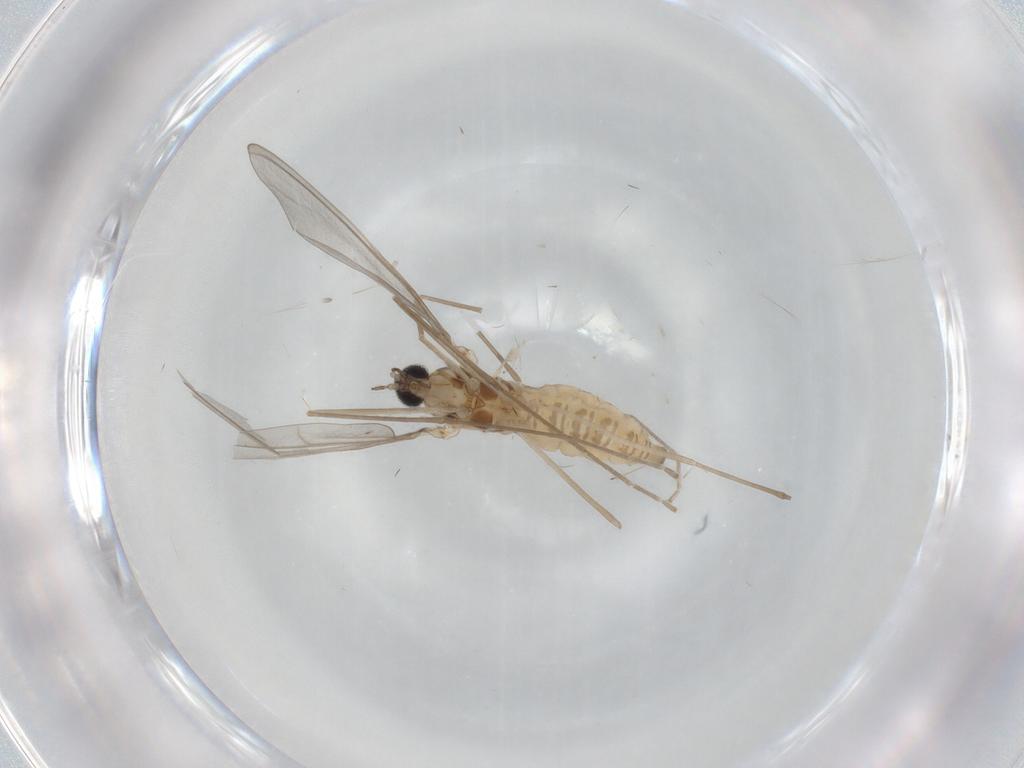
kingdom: Animalia
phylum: Arthropoda
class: Insecta
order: Diptera
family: Cecidomyiidae
